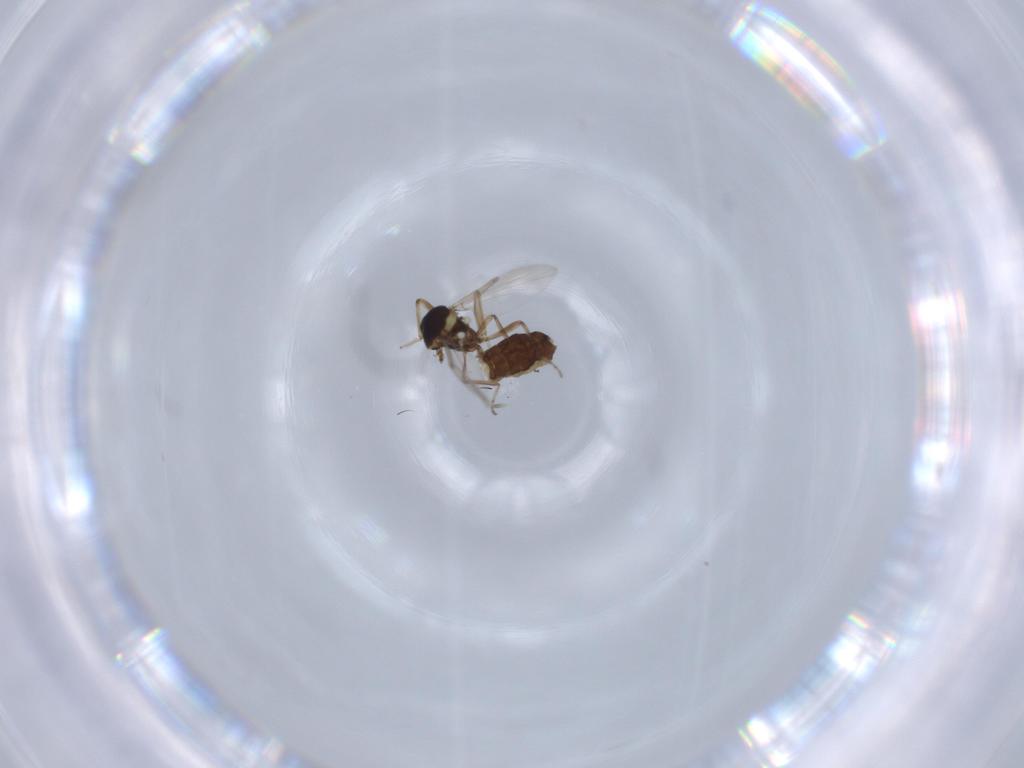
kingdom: Animalia
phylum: Arthropoda
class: Insecta
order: Diptera
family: Ceratopogonidae
